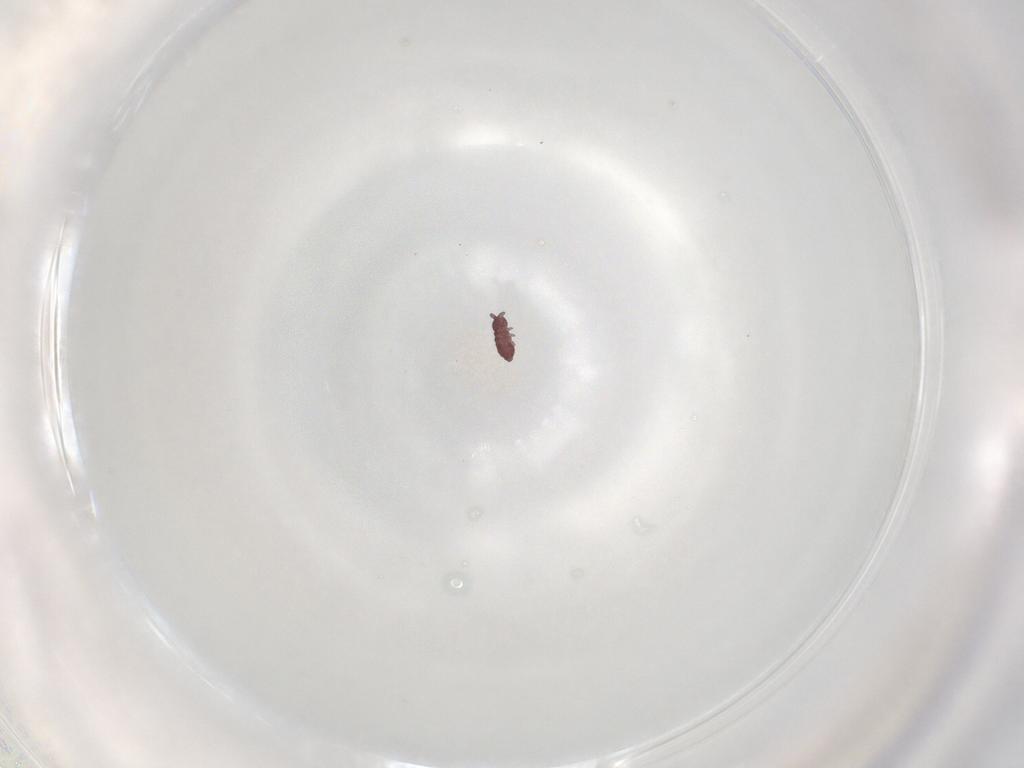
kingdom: Animalia
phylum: Arthropoda
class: Collembola
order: Poduromorpha
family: Hypogastruridae
